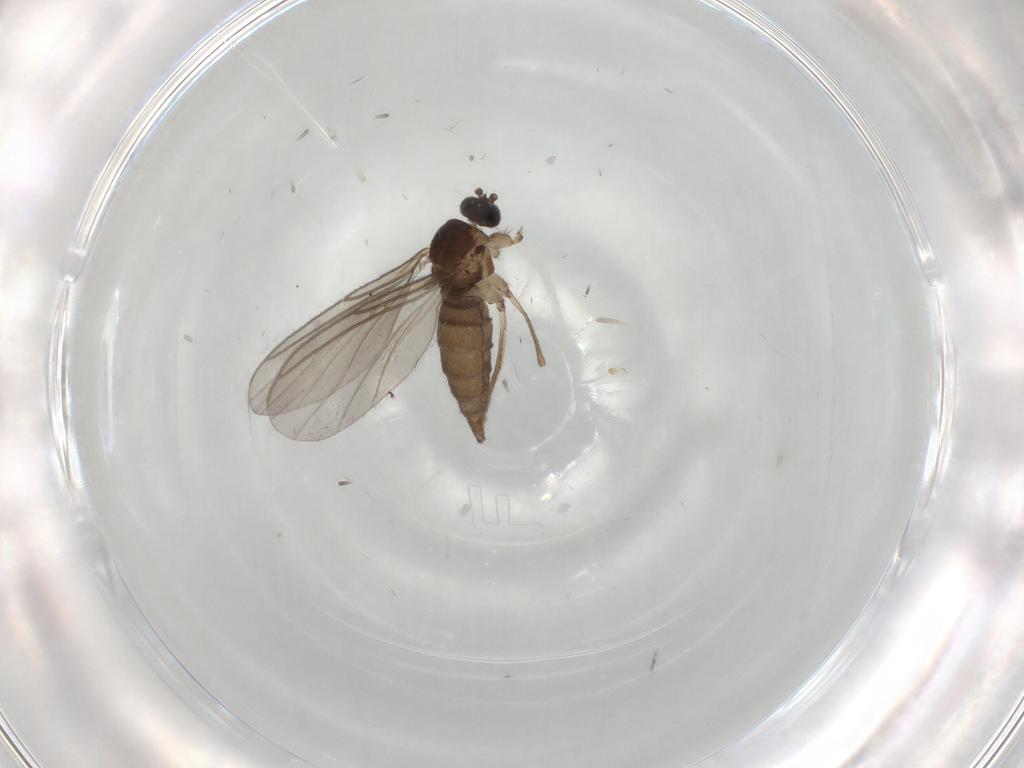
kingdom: Animalia
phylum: Arthropoda
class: Insecta
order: Diptera
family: Sciaridae
